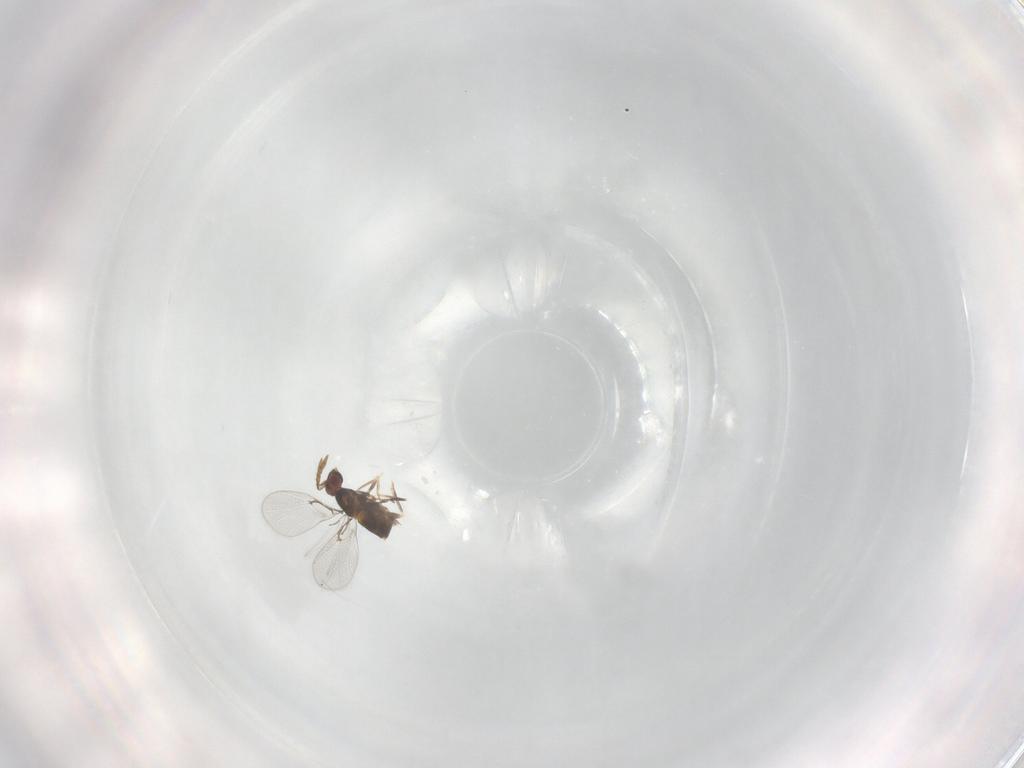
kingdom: Animalia
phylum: Arthropoda
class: Insecta
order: Hymenoptera
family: Trichogrammatidae
